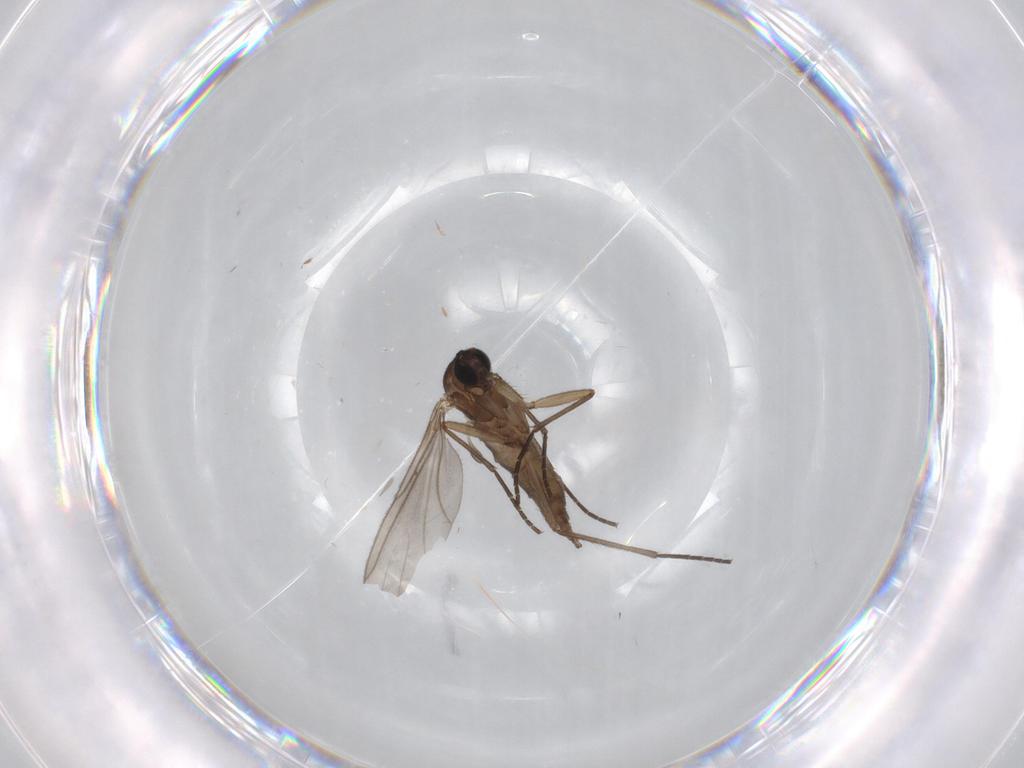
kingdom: Animalia
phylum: Arthropoda
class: Insecta
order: Diptera
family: Sciaridae
